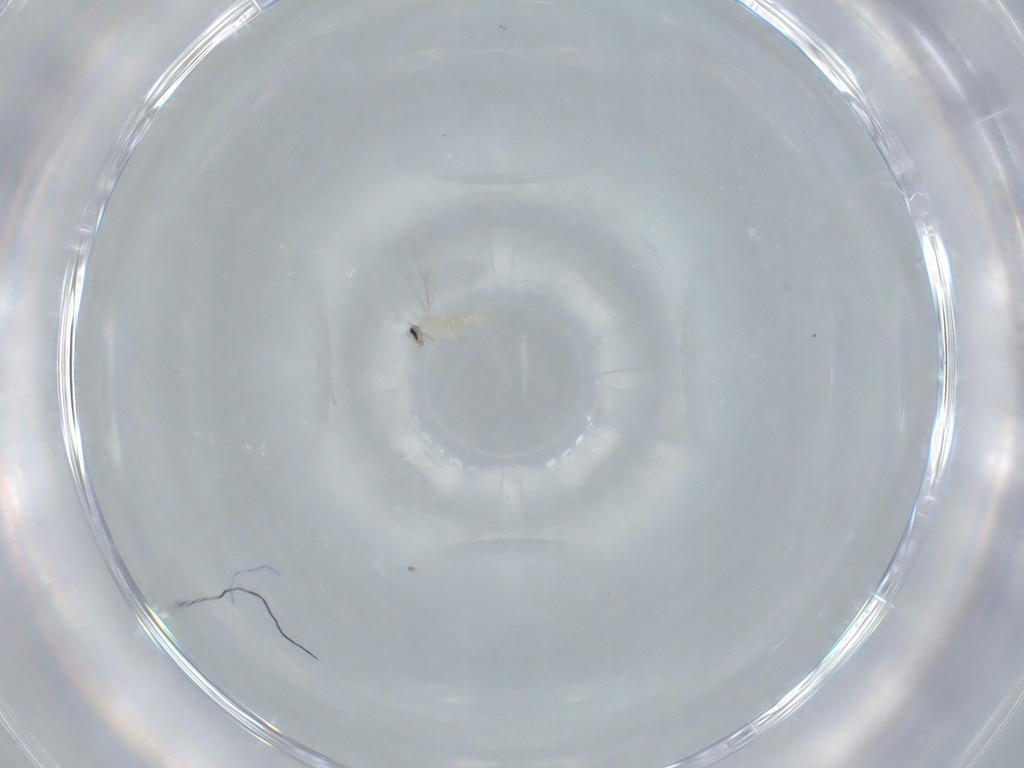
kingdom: Animalia
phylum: Arthropoda
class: Insecta
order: Diptera
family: Cecidomyiidae
